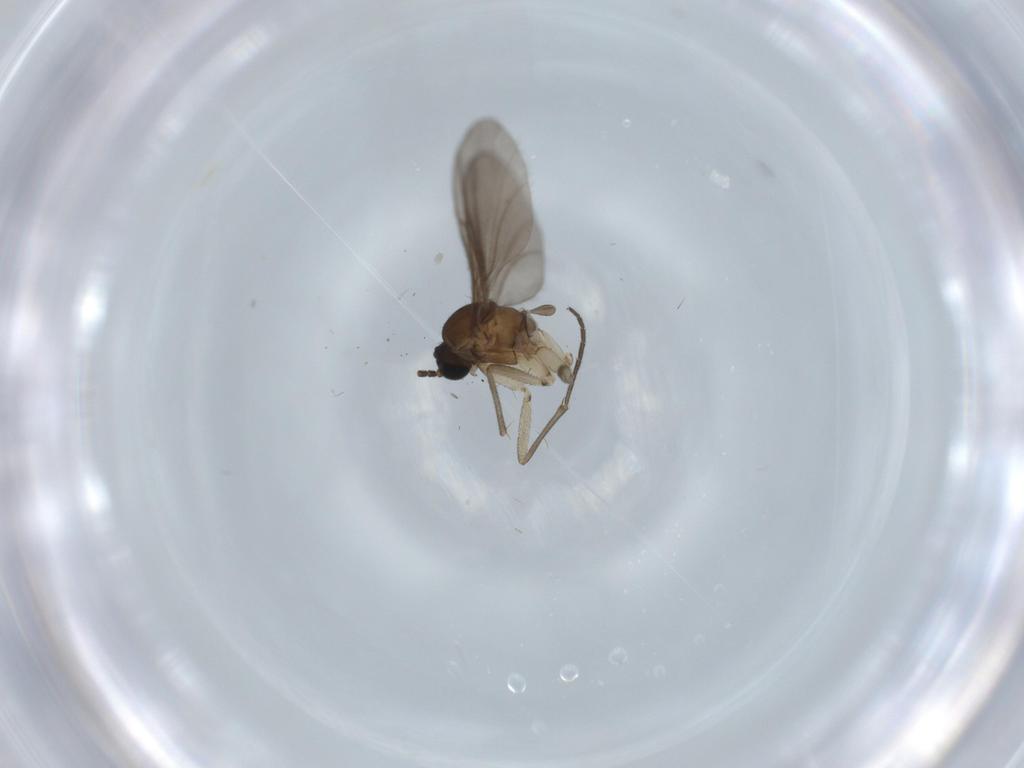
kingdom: Animalia
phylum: Arthropoda
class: Insecta
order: Diptera
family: Sciaridae
